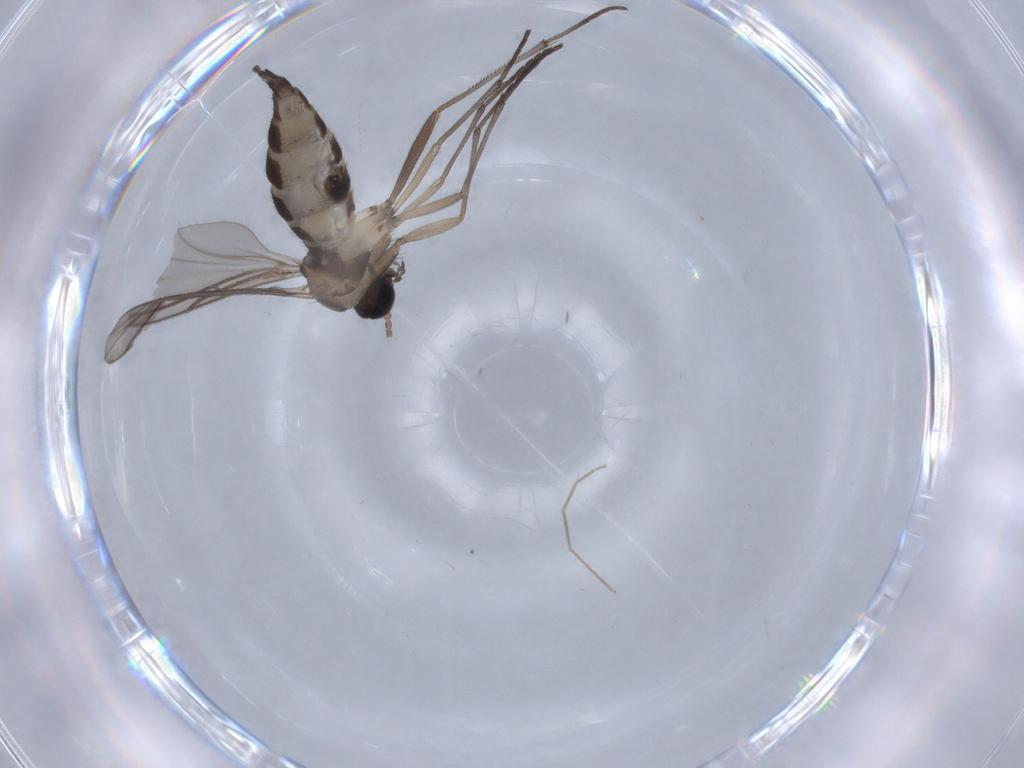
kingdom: Animalia
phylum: Arthropoda
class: Insecta
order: Diptera
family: Sciaridae
